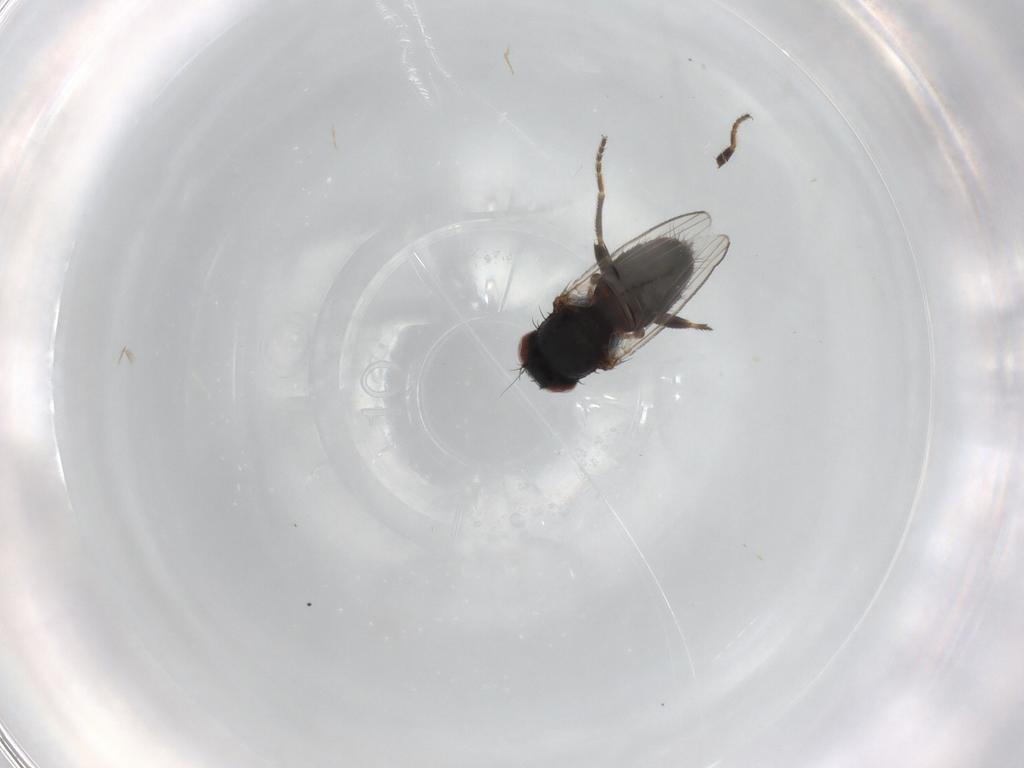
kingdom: Animalia
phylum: Arthropoda
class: Insecta
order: Diptera
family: Milichiidae
